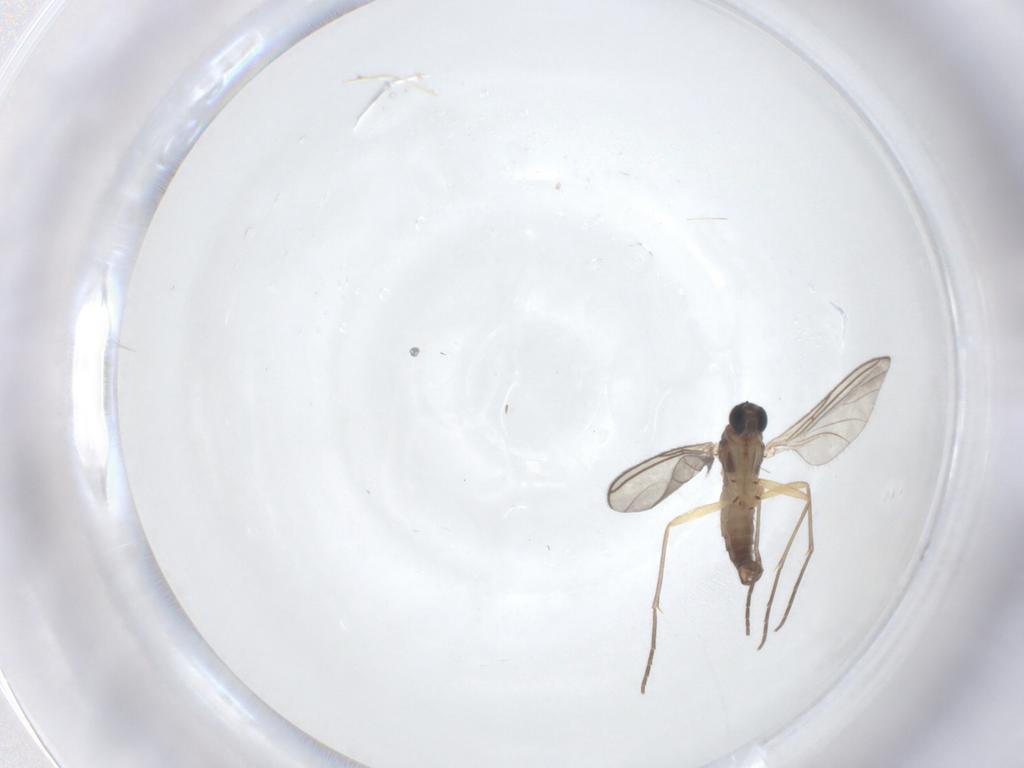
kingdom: Animalia
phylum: Arthropoda
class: Insecta
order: Diptera
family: Sciaridae
